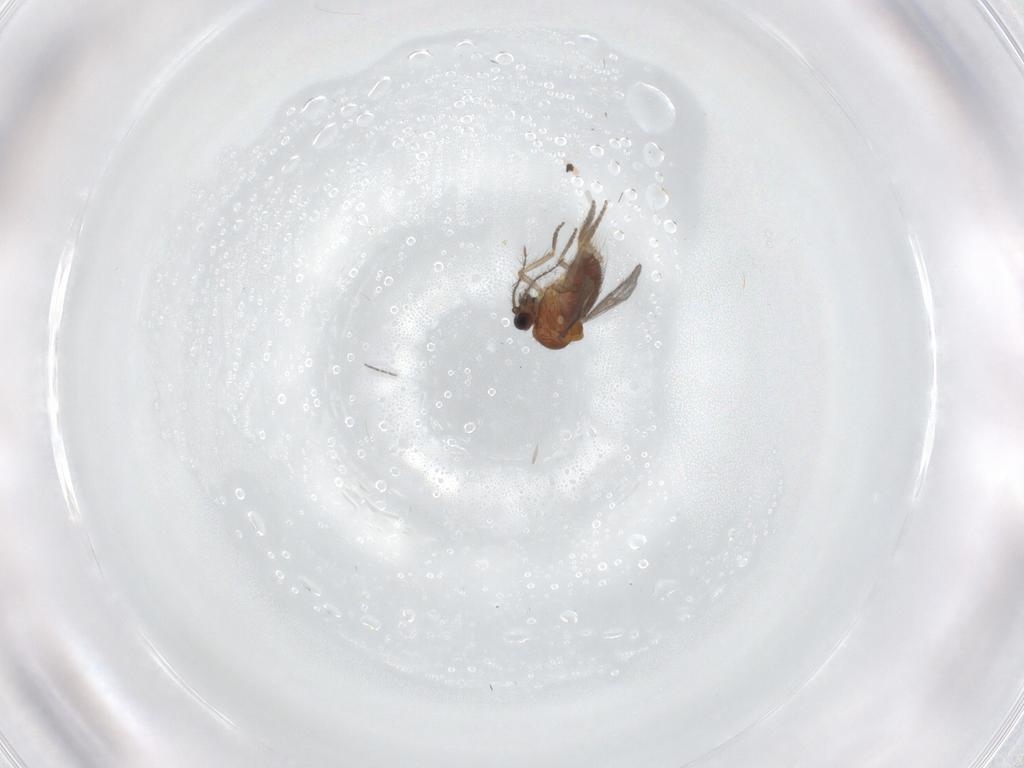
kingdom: Animalia
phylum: Arthropoda
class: Insecta
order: Diptera
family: Ceratopogonidae
